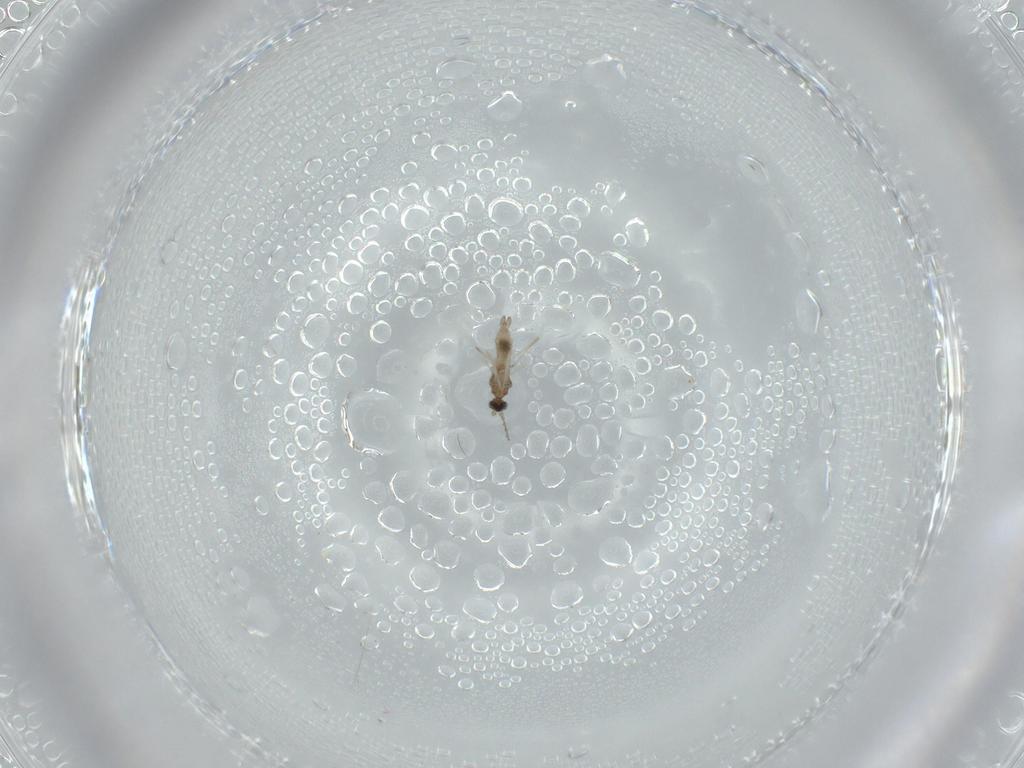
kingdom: Animalia
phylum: Arthropoda
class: Insecta
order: Diptera
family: Cecidomyiidae
